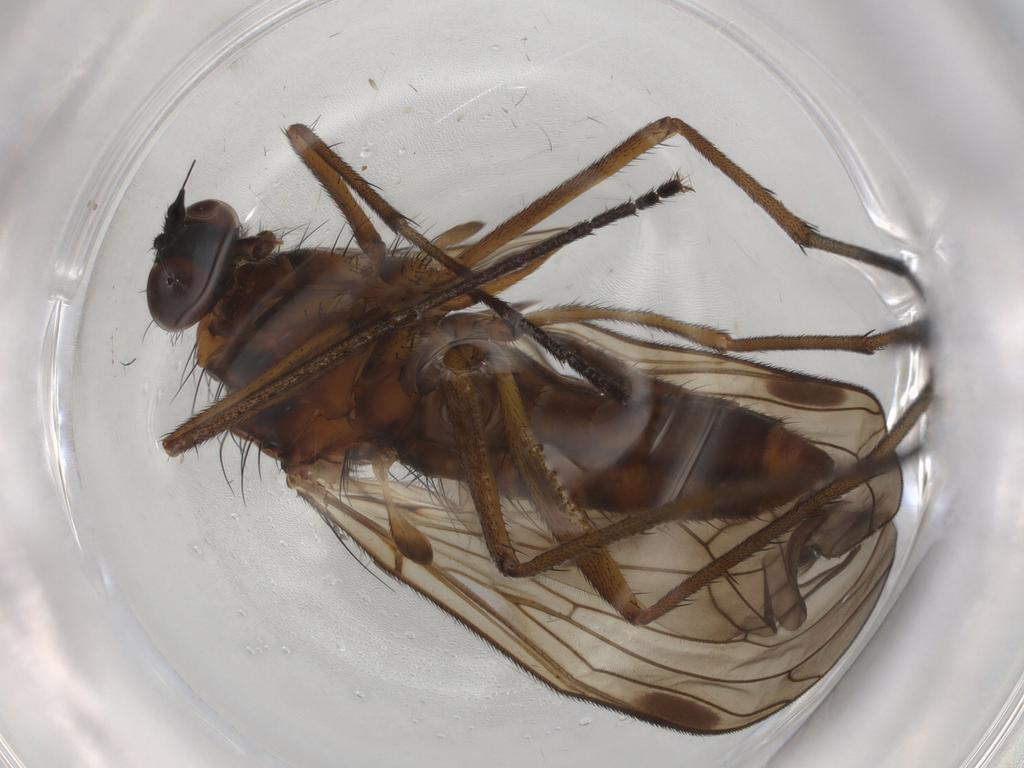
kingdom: Animalia
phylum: Arthropoda
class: Insecta
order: Diptera
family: Brachystomatidae
